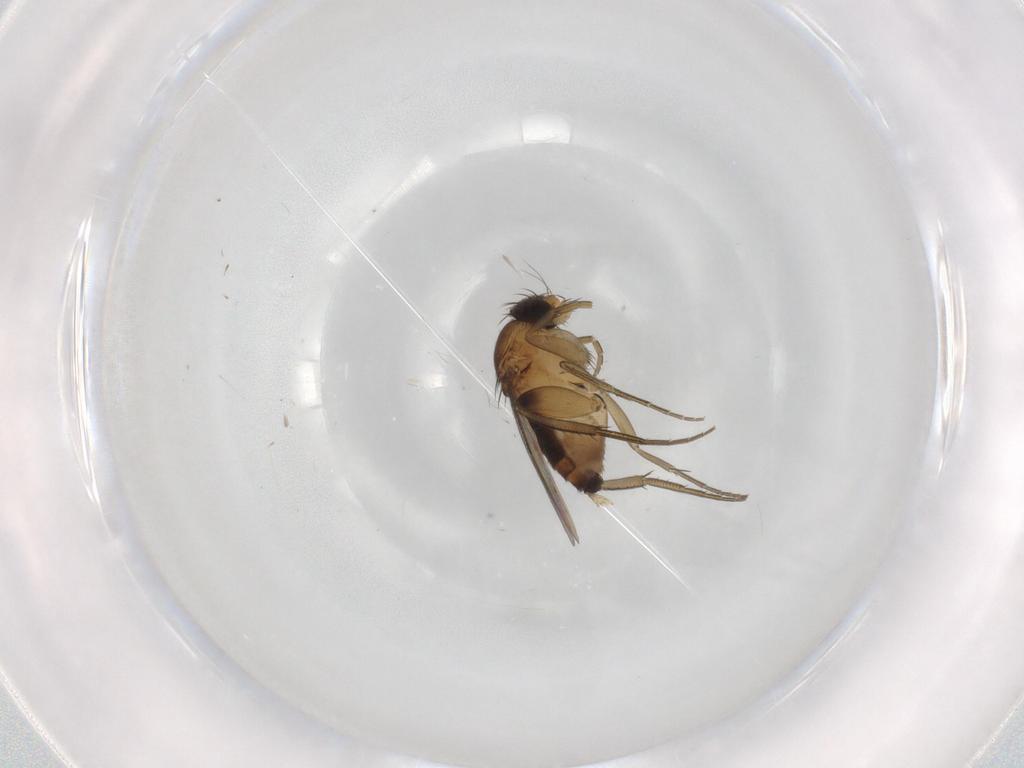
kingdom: Animalia
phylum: Arthropoda
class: Insecta
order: Diptera
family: Phoridae
